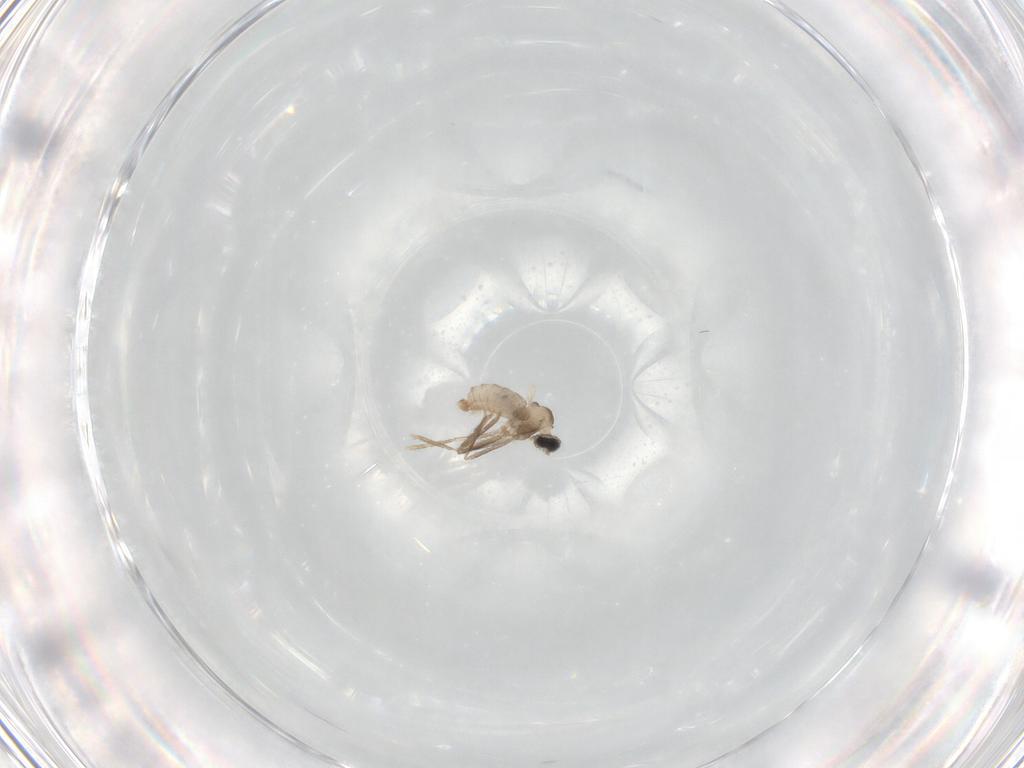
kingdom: Animalia
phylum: Arthropoda
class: Insecta
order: Diptera
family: Cecidomyiidae
